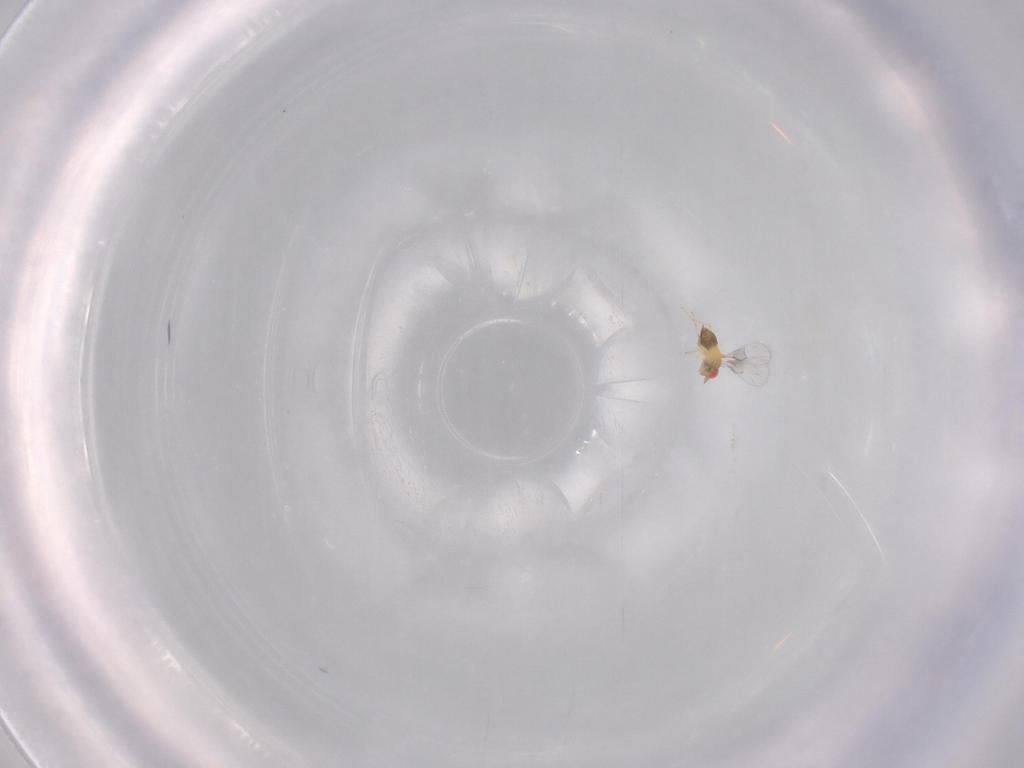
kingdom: Animalia
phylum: Arthropoda
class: Insecta
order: Hymenoptera
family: Trichogrammatidae
